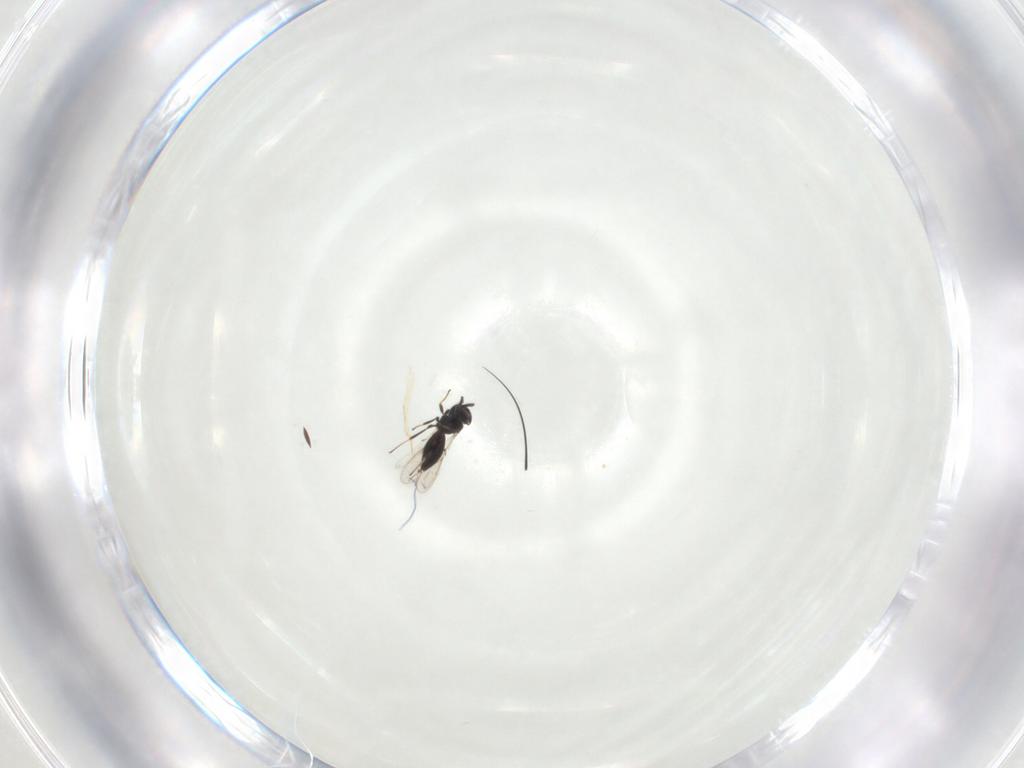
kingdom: Animalia
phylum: Arthropoda
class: Insecta
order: Hymenoptera
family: Scelionidae
